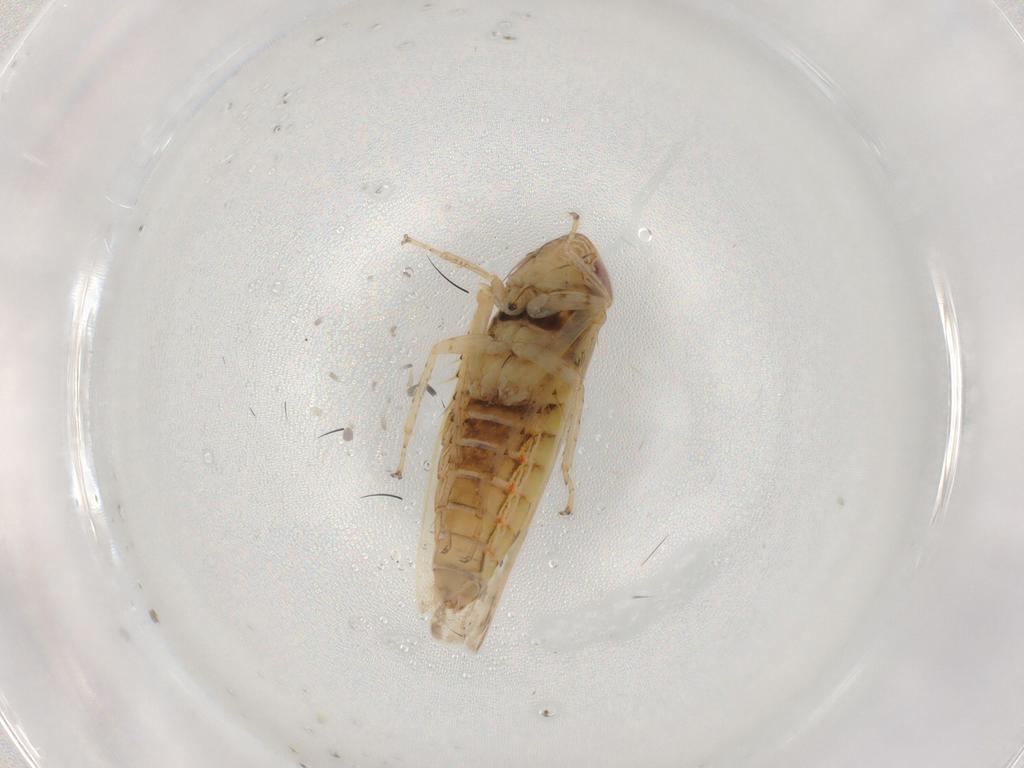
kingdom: Animalia
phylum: Arthropoda
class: Insecta
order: Hemiptera
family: Cicadellidae
